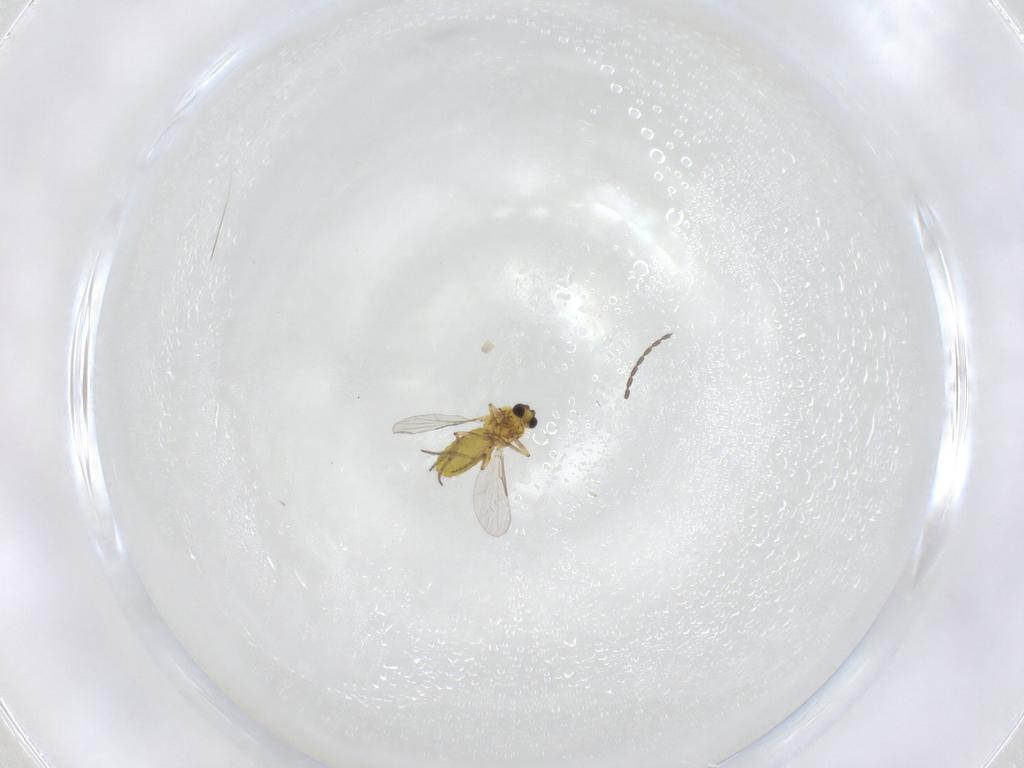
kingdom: Animalia
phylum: Arthropoda
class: Insecta
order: Diptera
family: Ceratopogonidae
